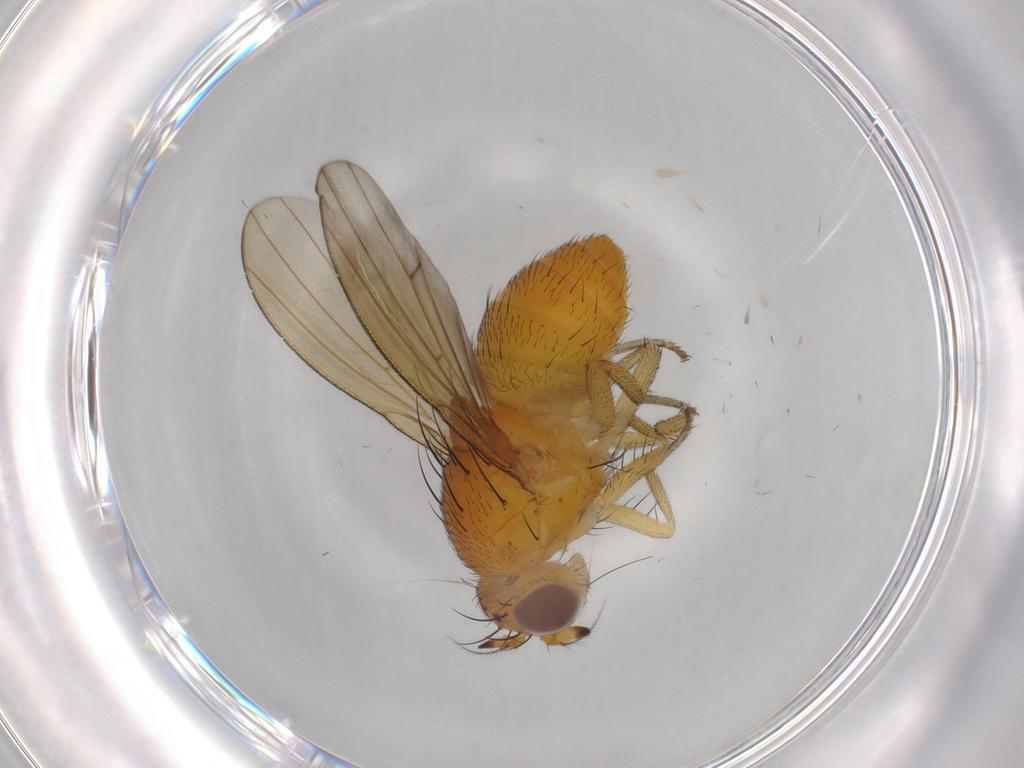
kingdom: Animalia
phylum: Arthropoda
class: Insecta
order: Diptera
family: Lauxaniidae
